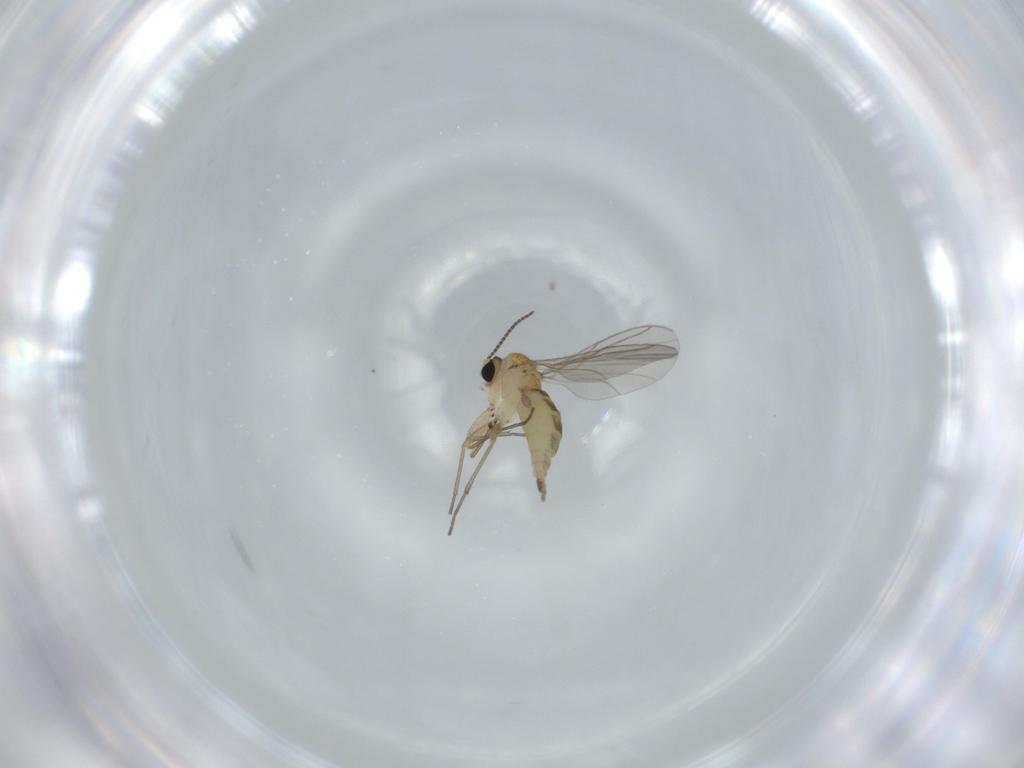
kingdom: Animalia
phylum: Arthropoda
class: Insecta
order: Diptera
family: Sciaridae
